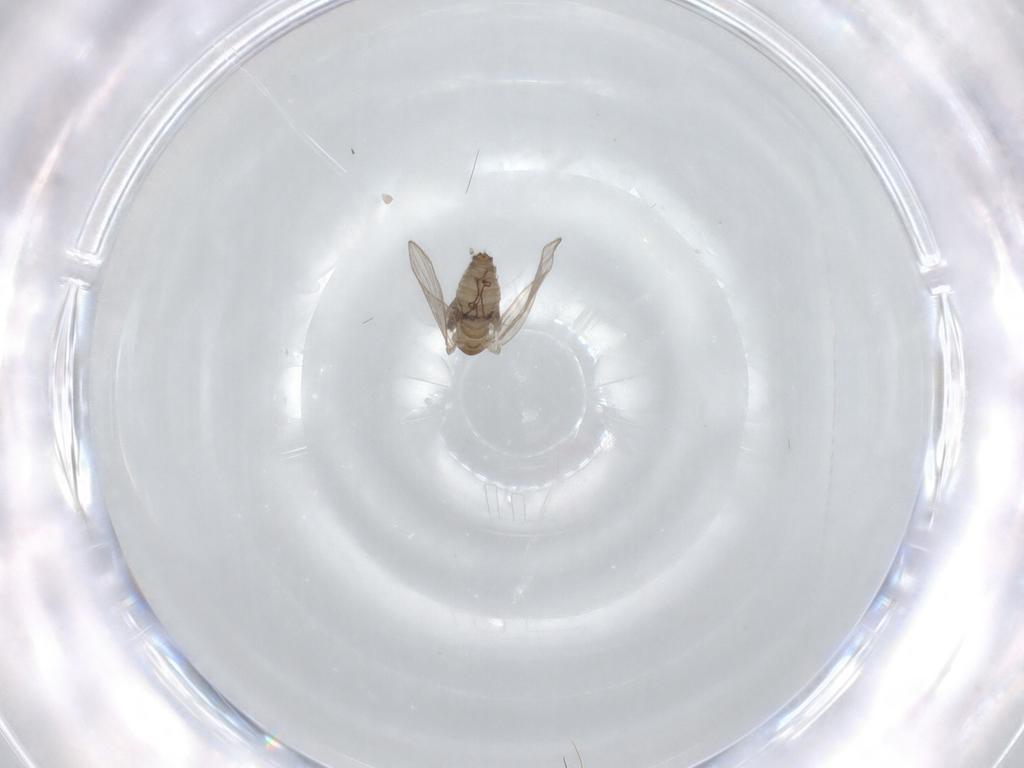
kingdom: Animalia
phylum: Arthropoda
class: Insecta
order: Diptera
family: Psychodidae
